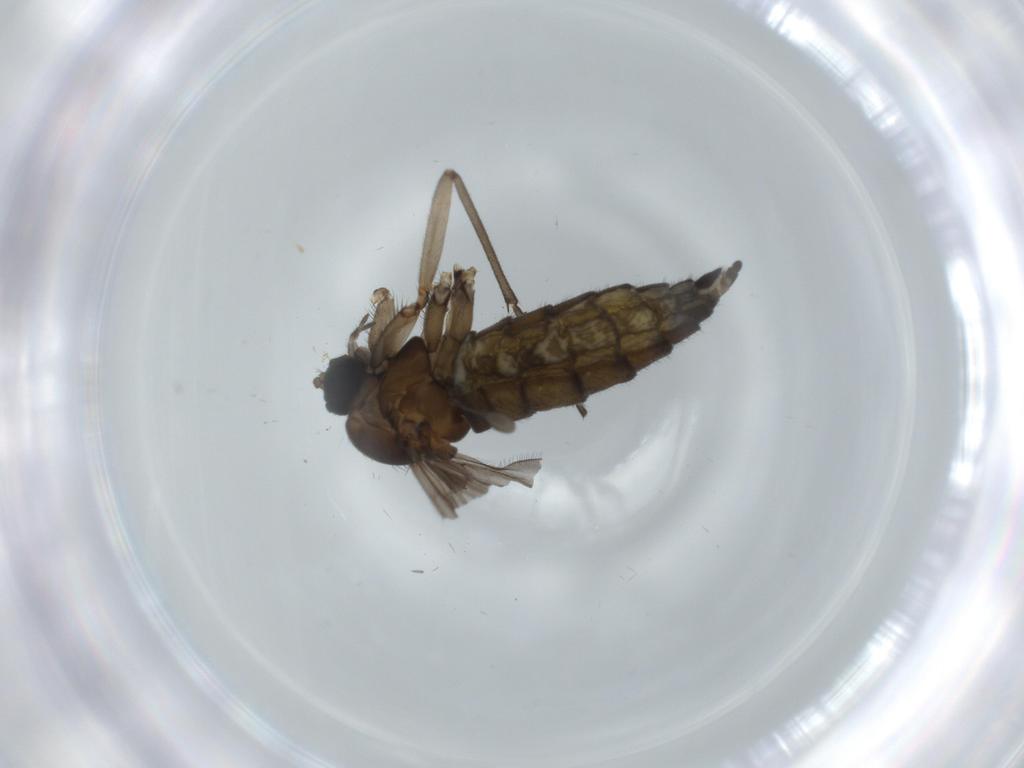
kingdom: Animalia
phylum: Arthropoda
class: Insecta
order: Diptera
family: Sciaridae
